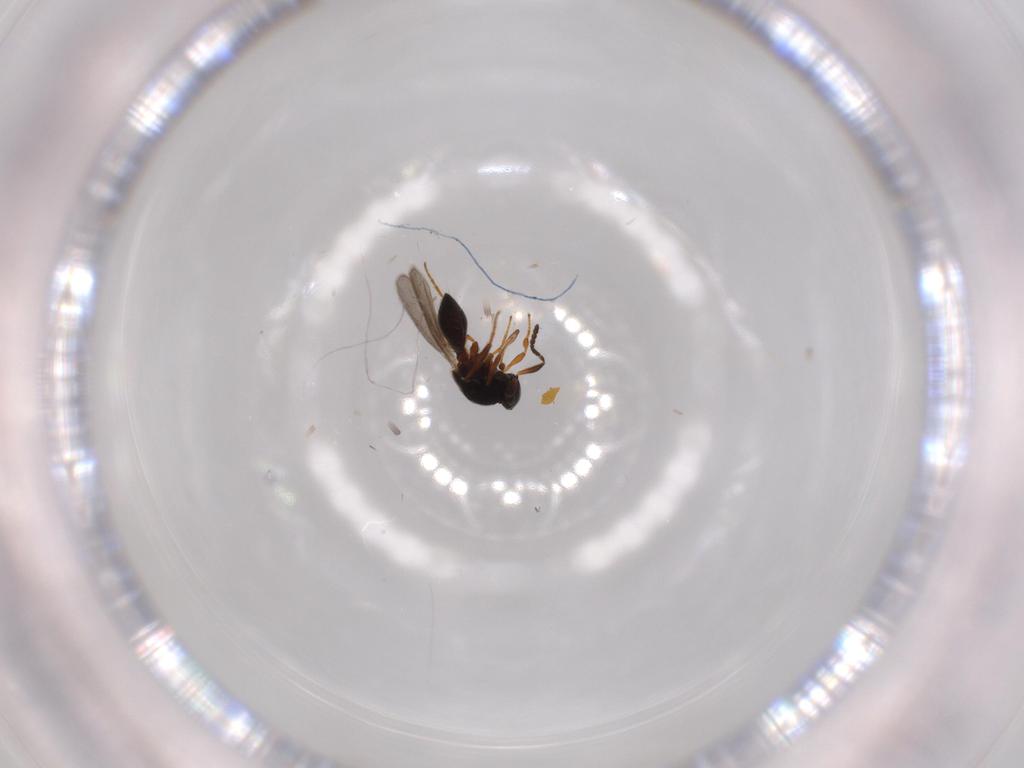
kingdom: Animalia
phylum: Arthropoda
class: Insecta
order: Hymenoptera
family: Platygastridae
